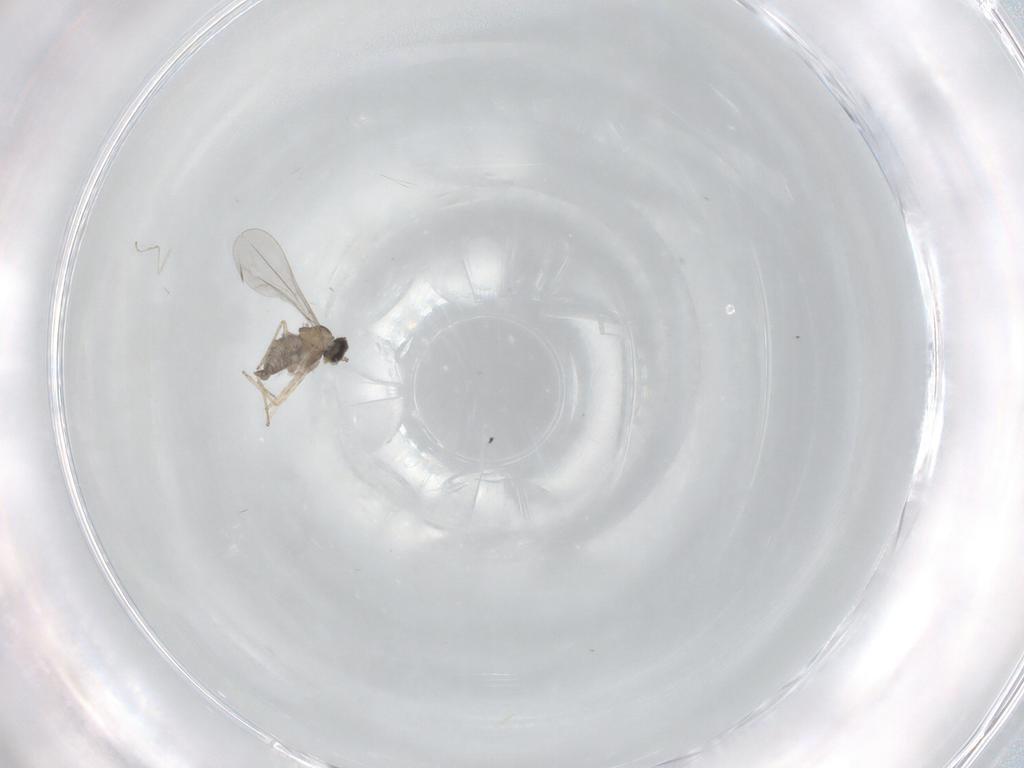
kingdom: Animalia
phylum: Arthropoda
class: Insecta
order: Diptera
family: Cecidomyiidae
